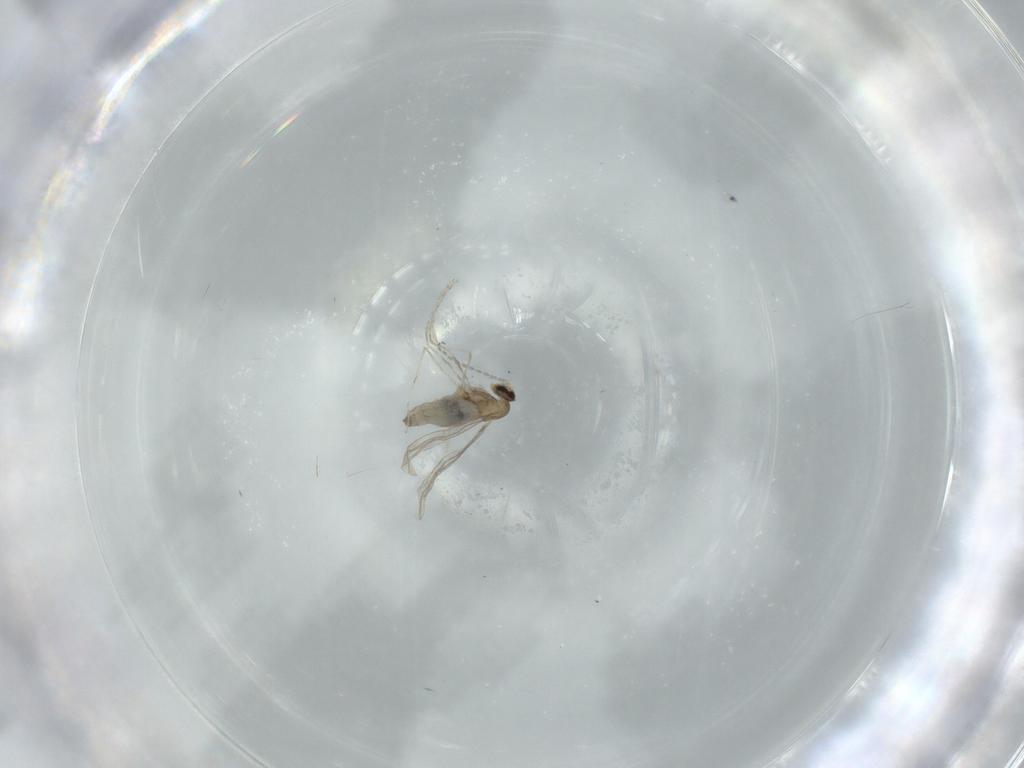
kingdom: Animalia
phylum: Arthropoda
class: Insecta
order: Diptera
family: Cecidomyiidae
